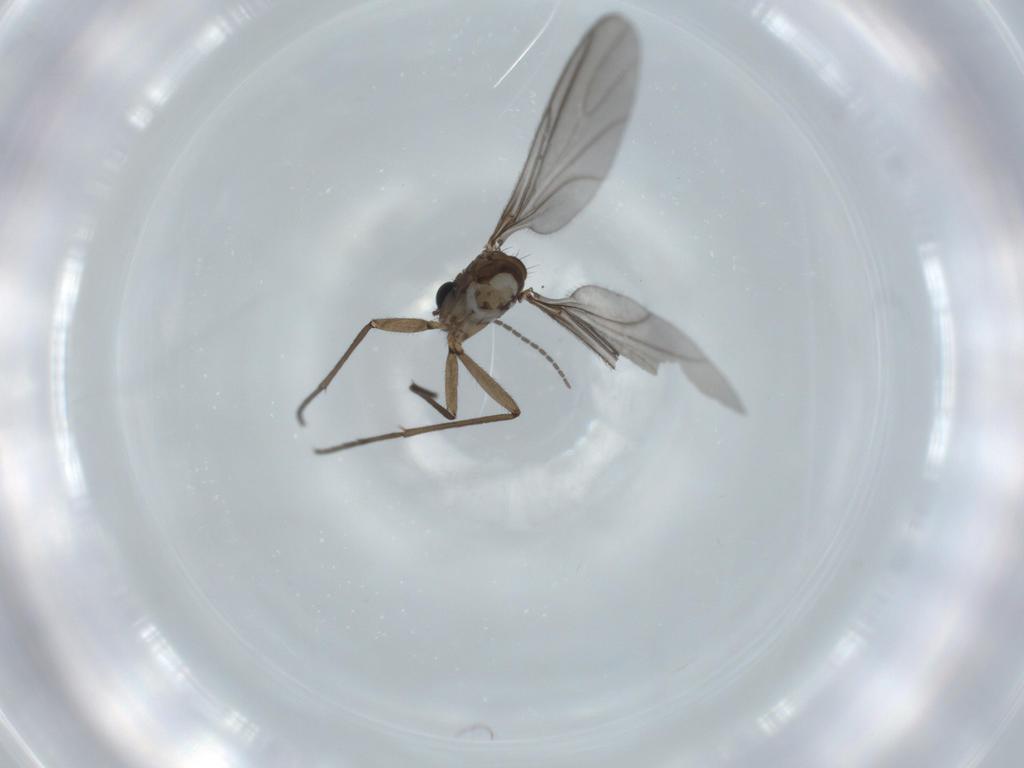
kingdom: Animalia
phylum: Arthropoda
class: Insecta
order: Diptera
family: Sciaridae
